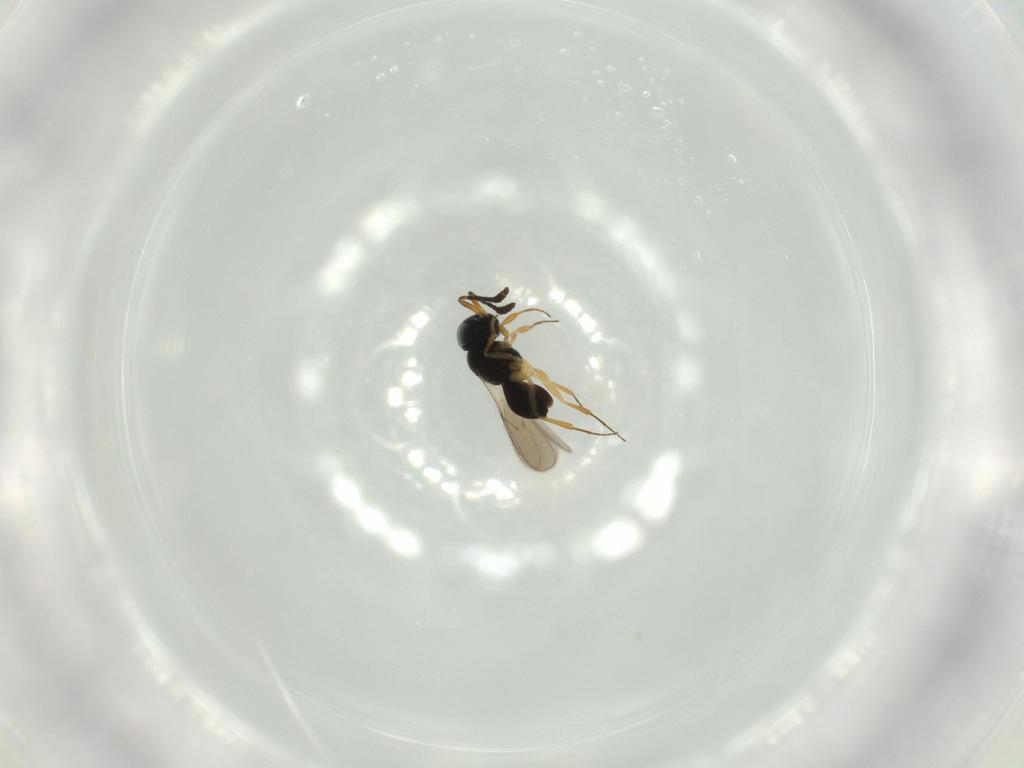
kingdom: Animalia
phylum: Arthropoda
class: Insecta
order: Hymenoptera
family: Scelionidae
